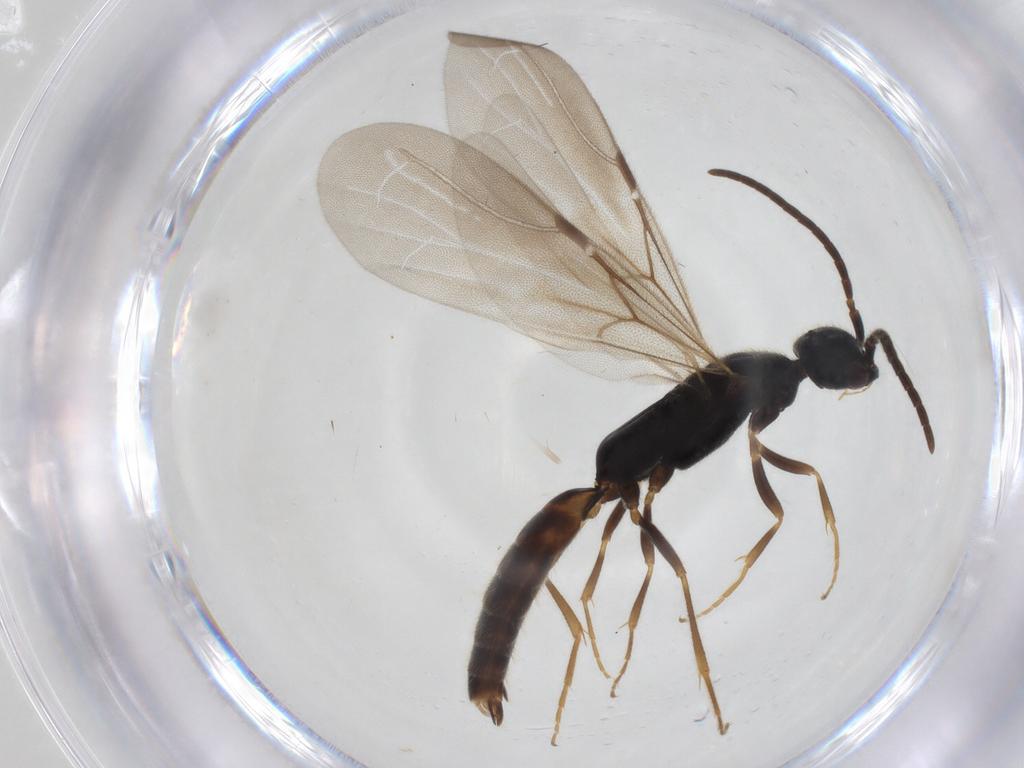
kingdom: Animalia
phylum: Arthropoda
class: Insecta
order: Hymenoptera
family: Bethylidae
